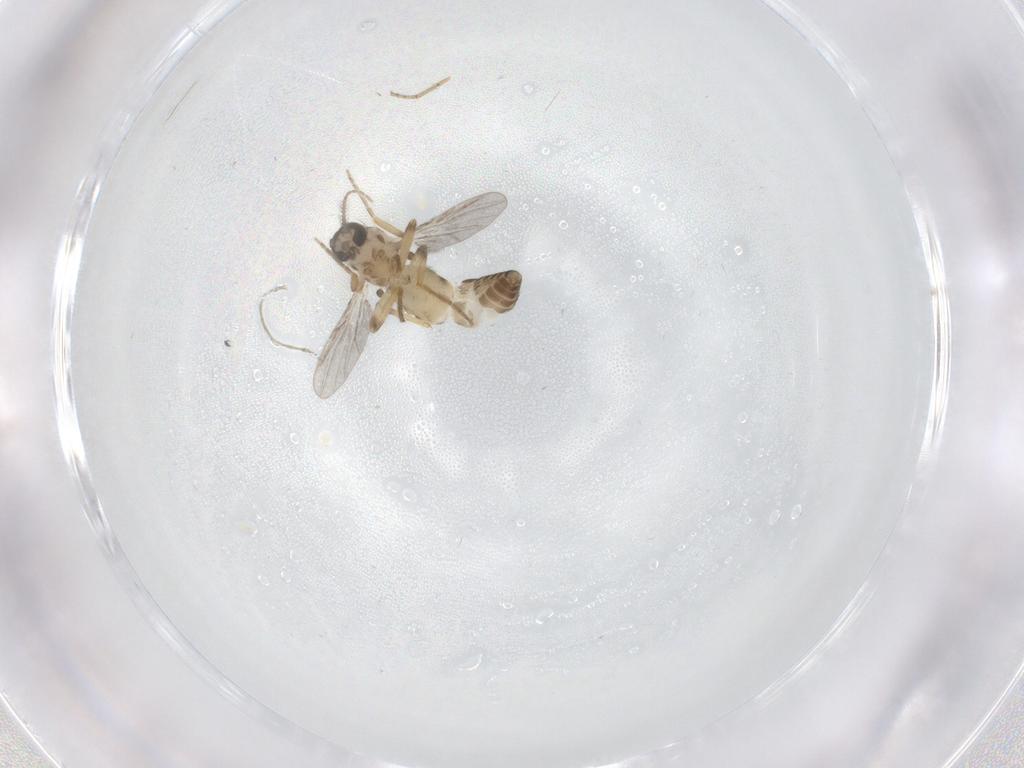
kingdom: Animalia
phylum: Arthropoda
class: Insecta
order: Diptera
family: Ceratopogonidae
